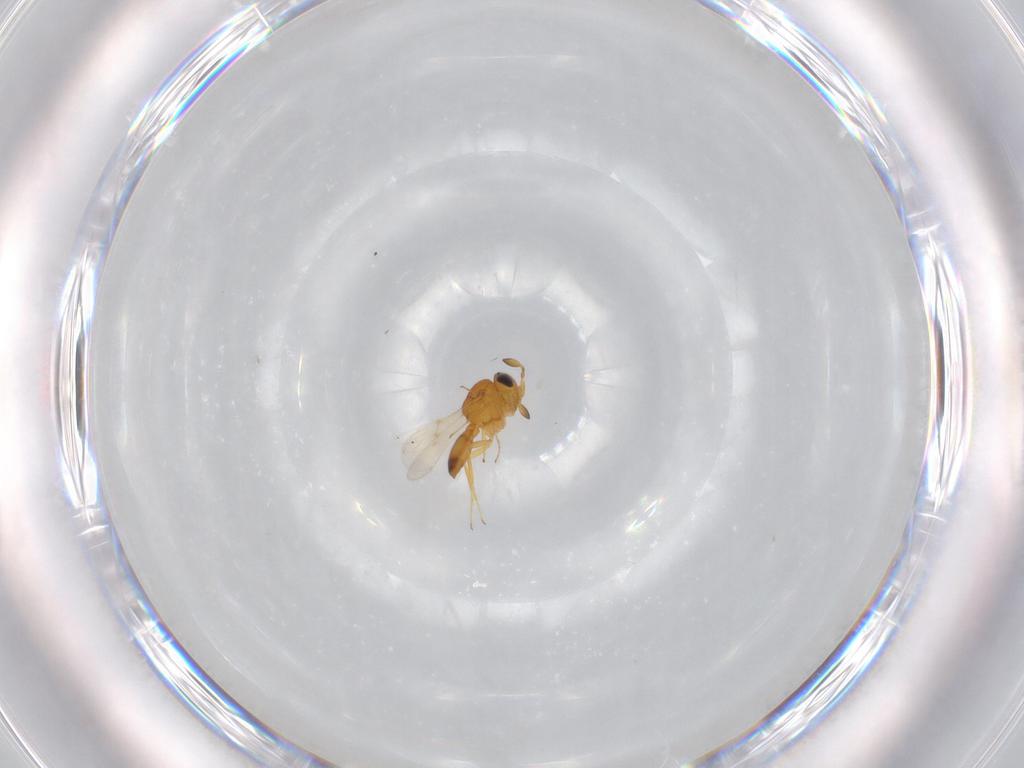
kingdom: Animalia
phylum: Arthropoda
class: Insecta
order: Hymenoptera
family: Scelionidae
